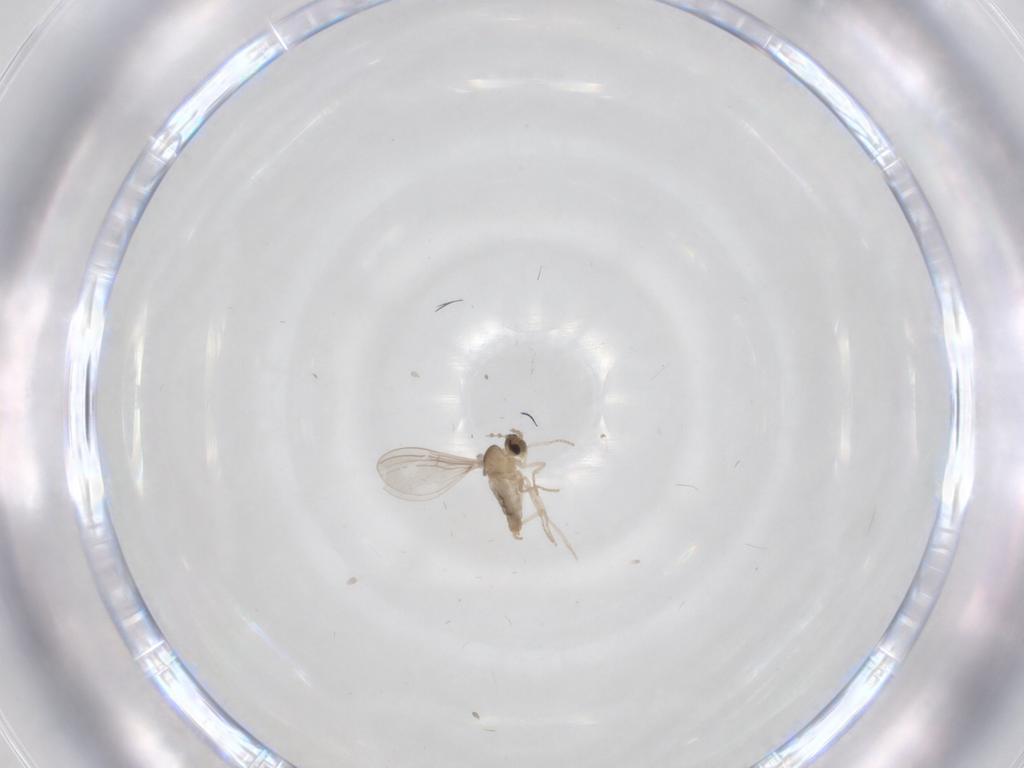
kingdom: Animalia
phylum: Arthropoda
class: Insecta
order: Diptera
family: Cecidomyiidae
